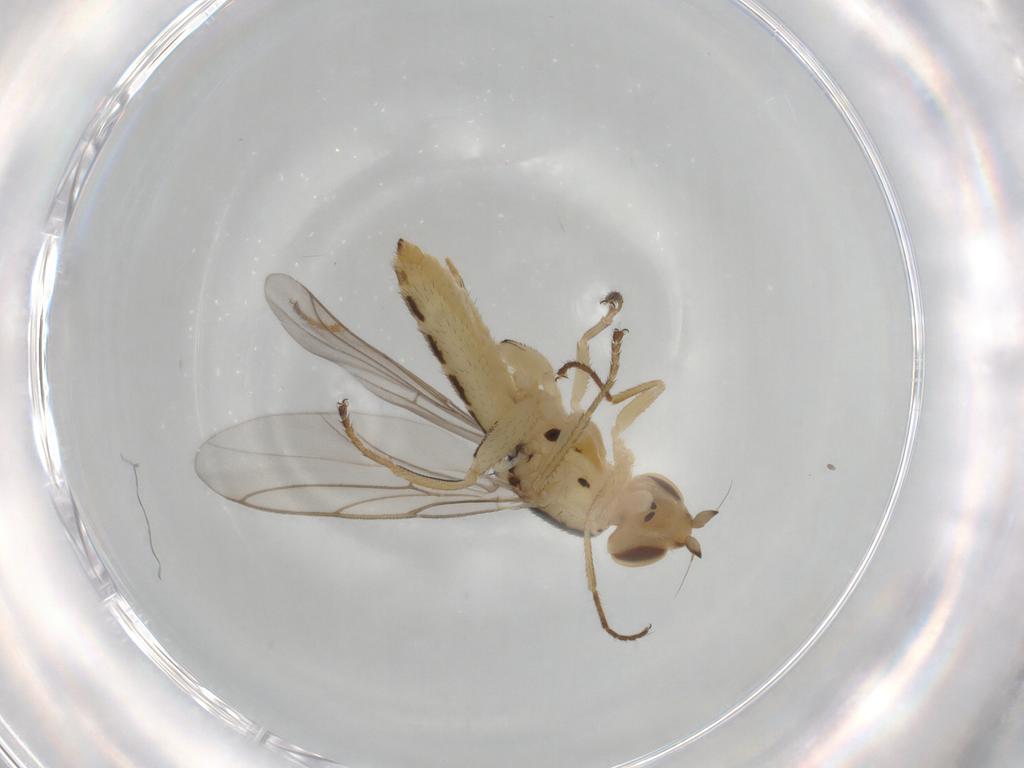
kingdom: Animalia
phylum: Arthropoda
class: Insecta
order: Diptera
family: Chloropidae
